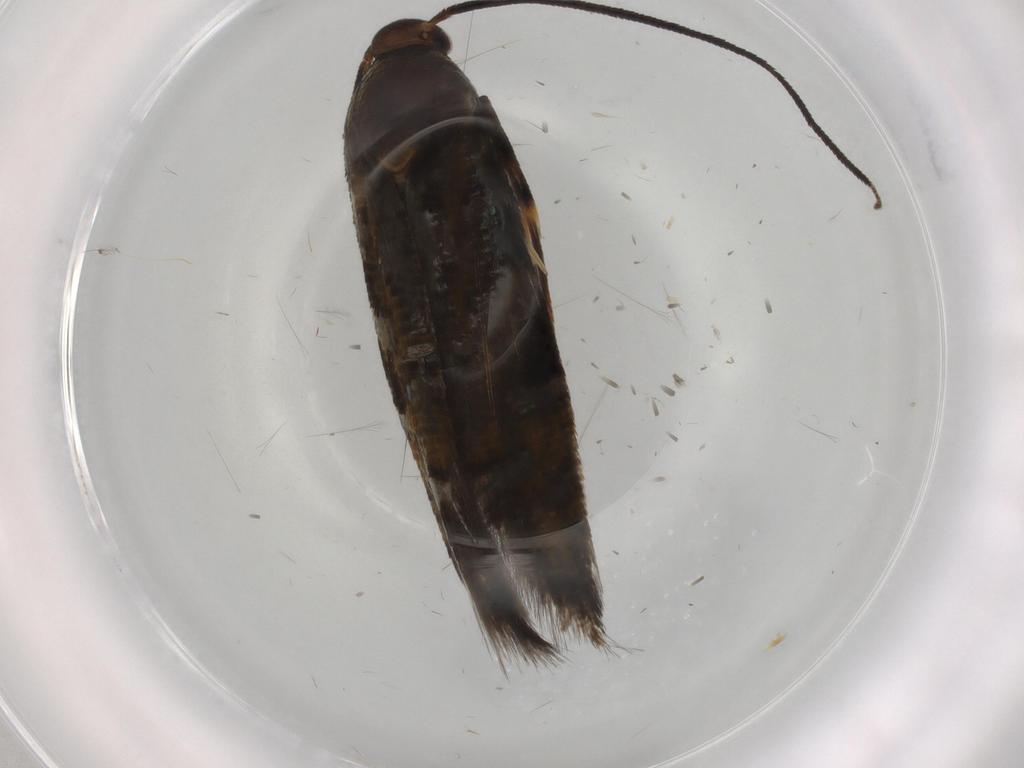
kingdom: Animalia
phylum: Arthropoda
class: Insecta
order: Lepidoptera
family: Heliodinidae
